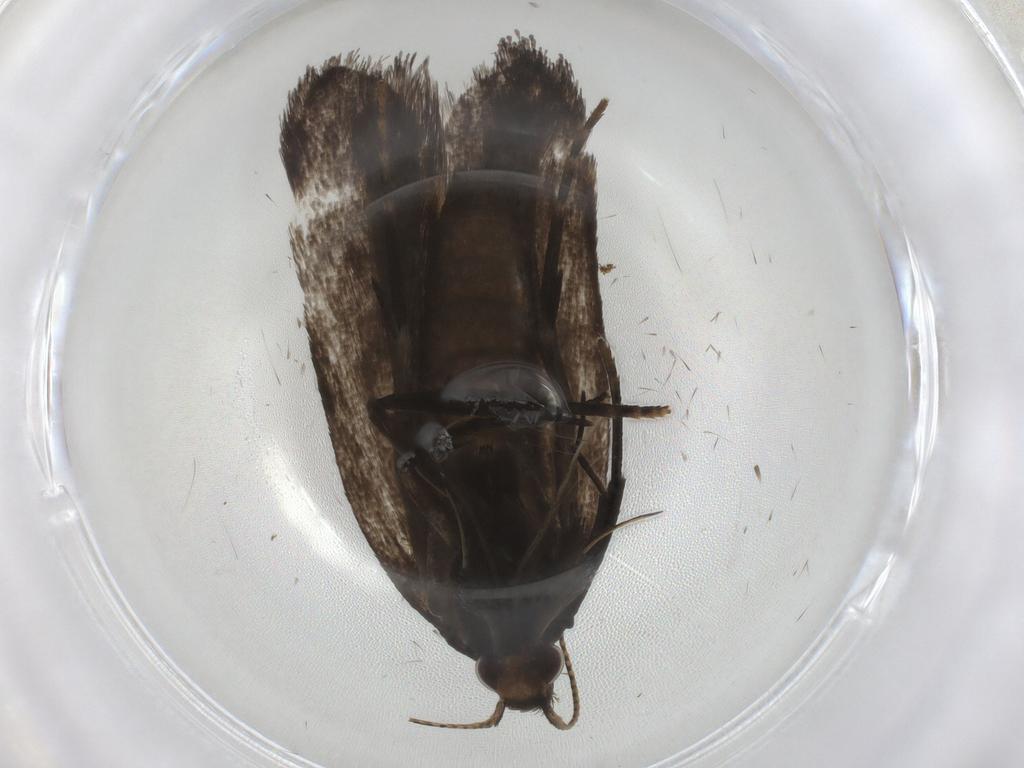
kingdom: Animalia
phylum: Arthropoda
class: Insecta
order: Lepidoptera
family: Gelechiidae
